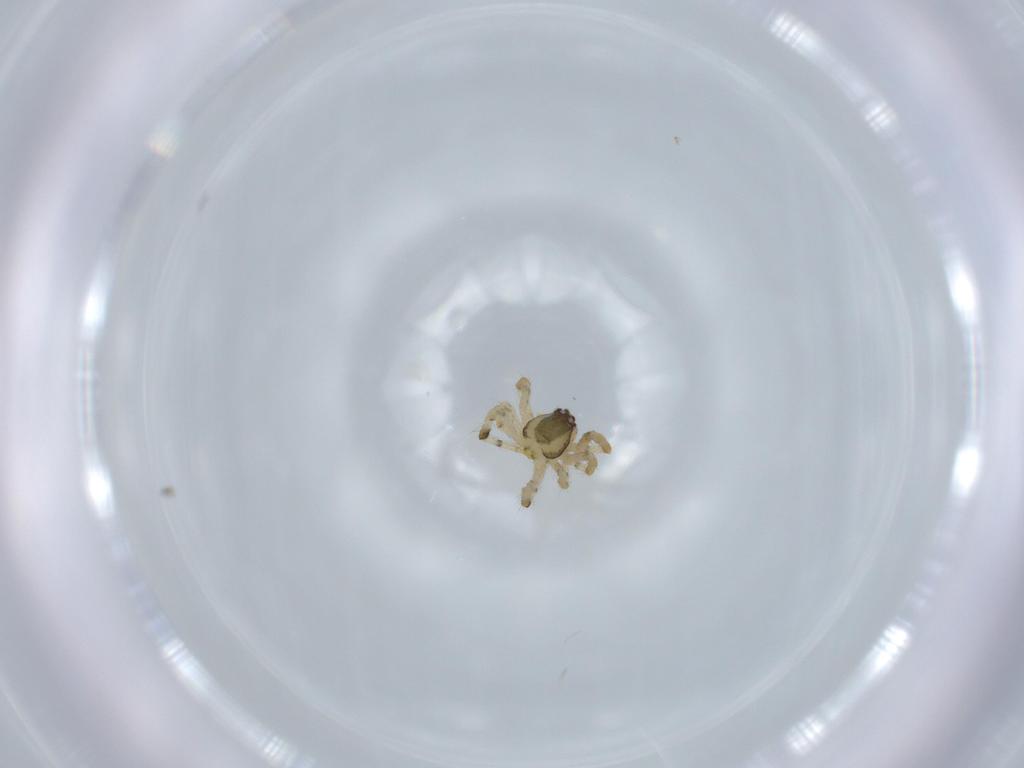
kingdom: Animalia
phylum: Arthropoda
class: Arachnida
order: Araneae
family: Theridiidae
